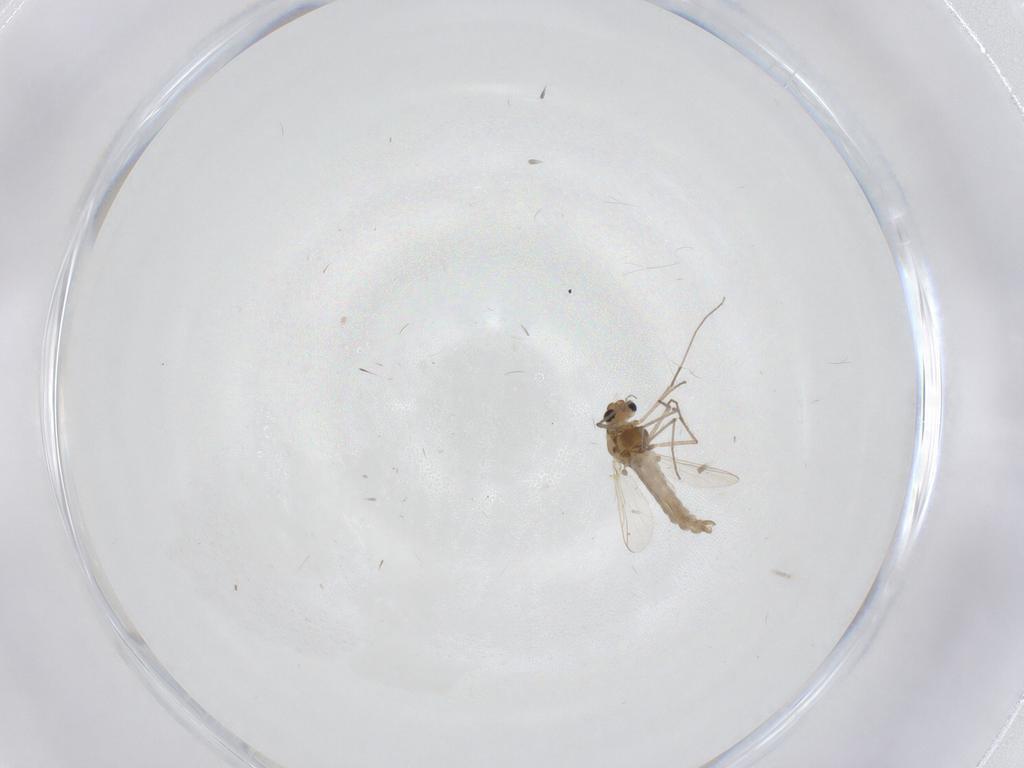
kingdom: Animalia
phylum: Arthropoda
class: Insecta
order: Diptera
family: Chironomidae
